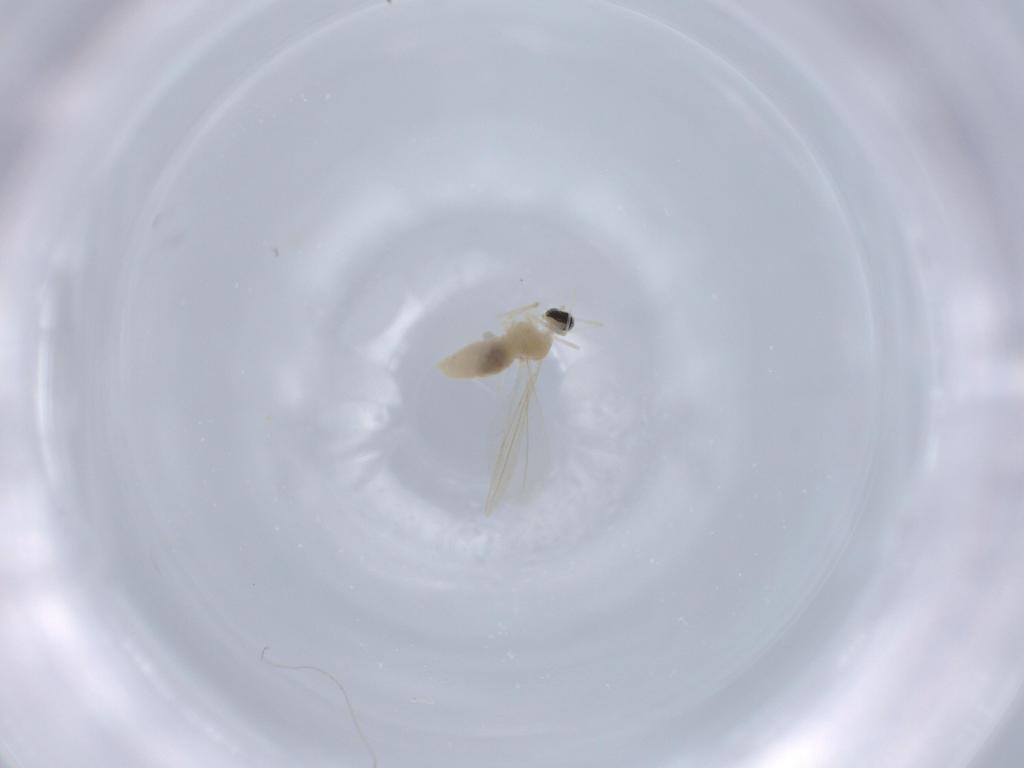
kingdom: Animalia
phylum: Arthropoda
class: Insecta
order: Diptera
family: Cecidomyiidae
